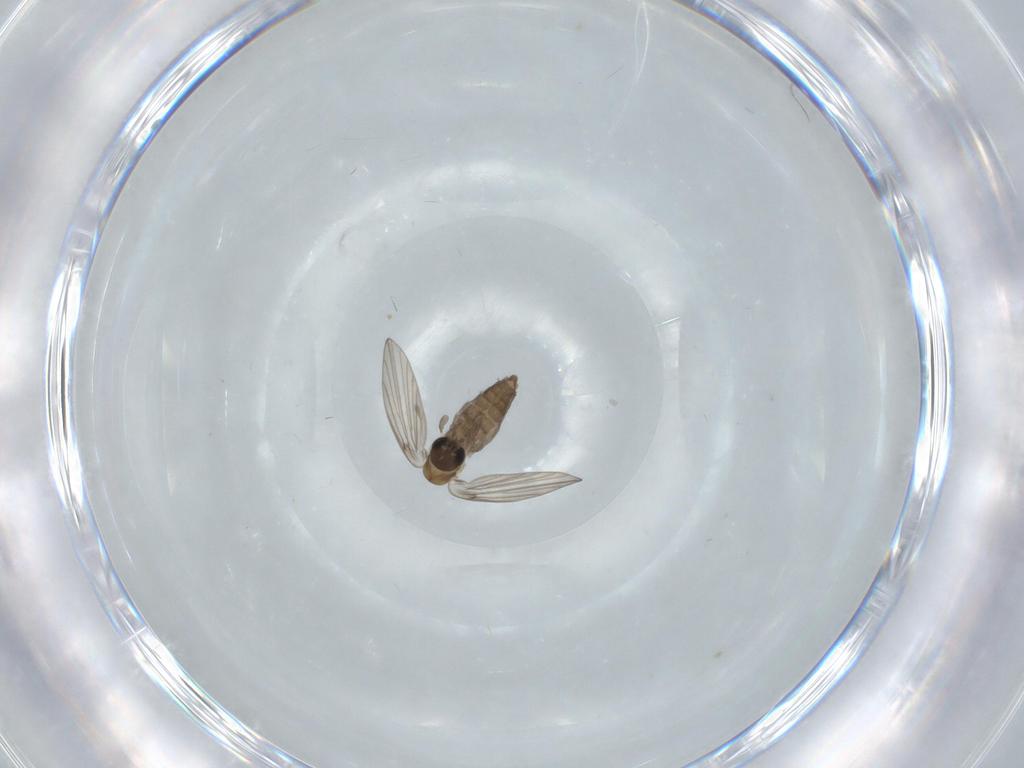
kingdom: Animalia
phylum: Arthropoda
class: Insecta
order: Diptera
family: Psychodidae
